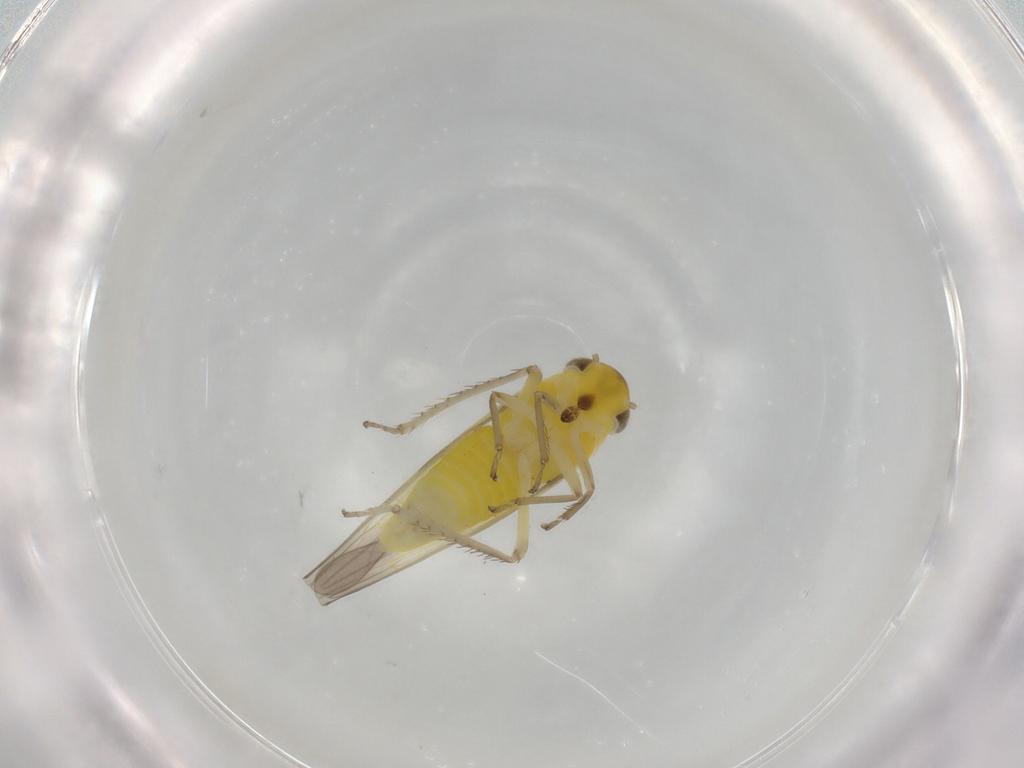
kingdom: Animalia
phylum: Arthropoda
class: Insecta
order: Hemiptera
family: Cicadellidae
